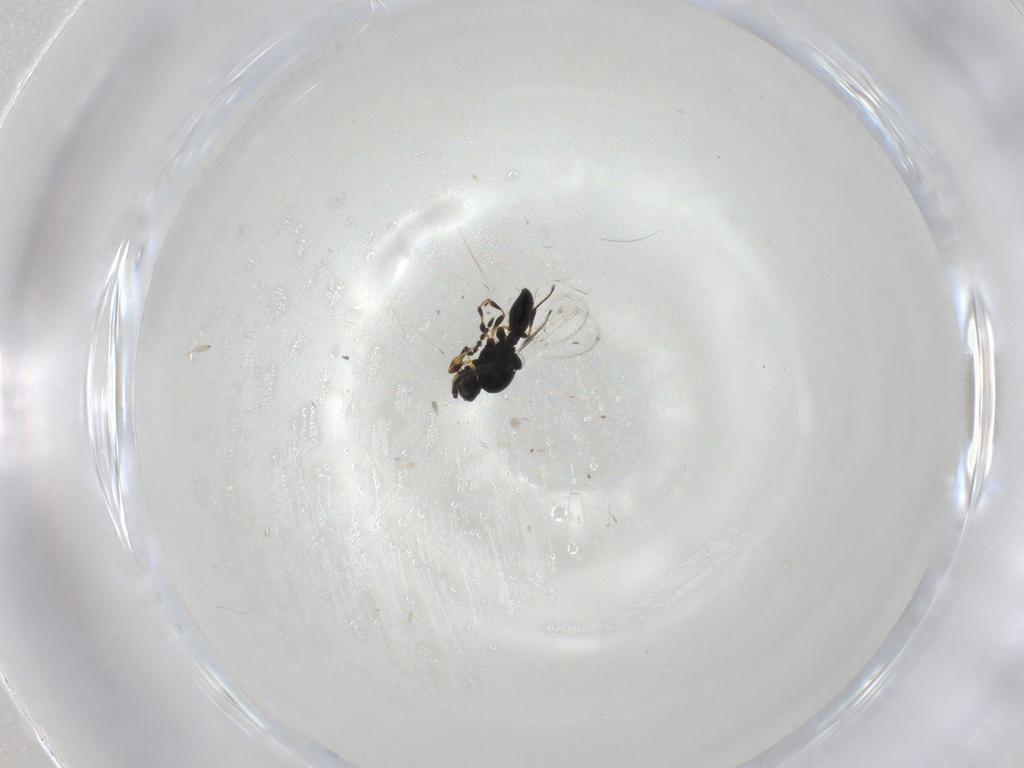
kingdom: Animalia
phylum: Arthropoda
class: Insecta
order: Hymenoptera
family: Platygastridae
